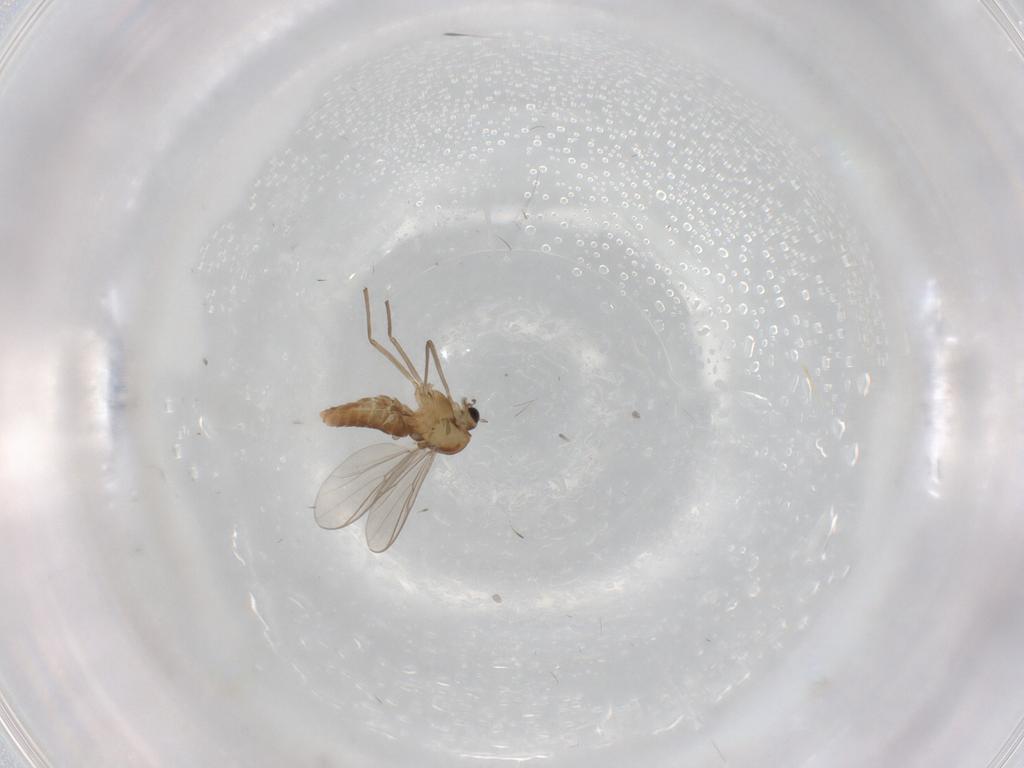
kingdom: Animalia
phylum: Arthropoda
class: Insecta
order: Diptera
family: Chironomidae
